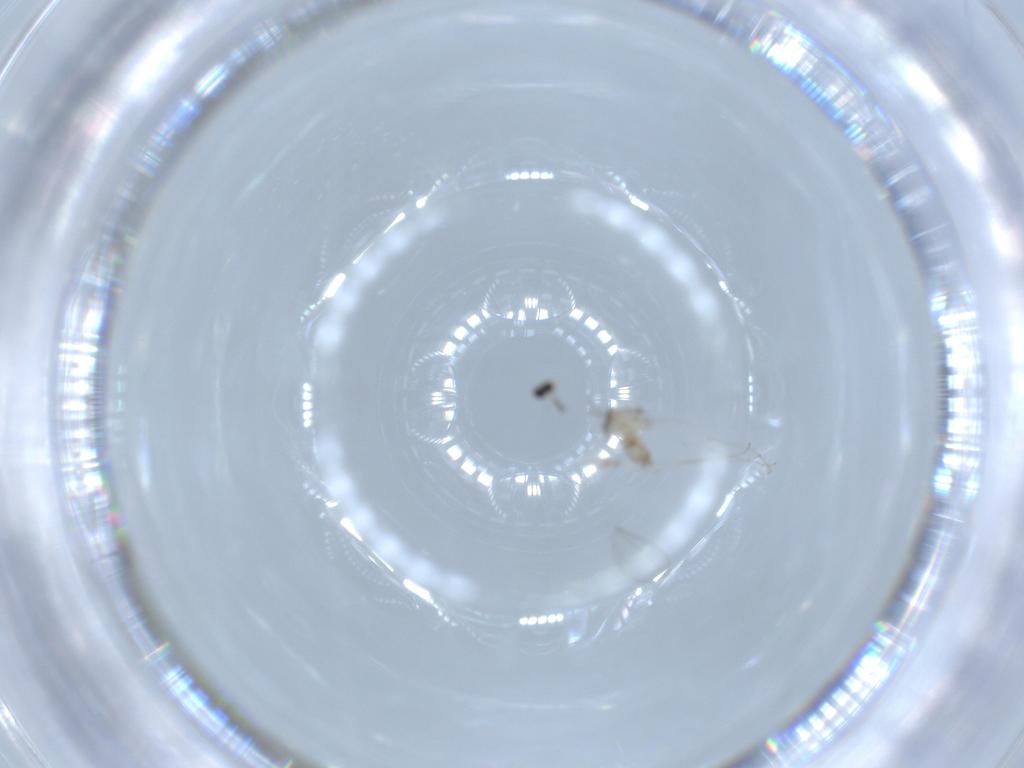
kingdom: Animalia
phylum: Arthropoda
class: Insecta
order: Diptera
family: Cecidomyiidae
